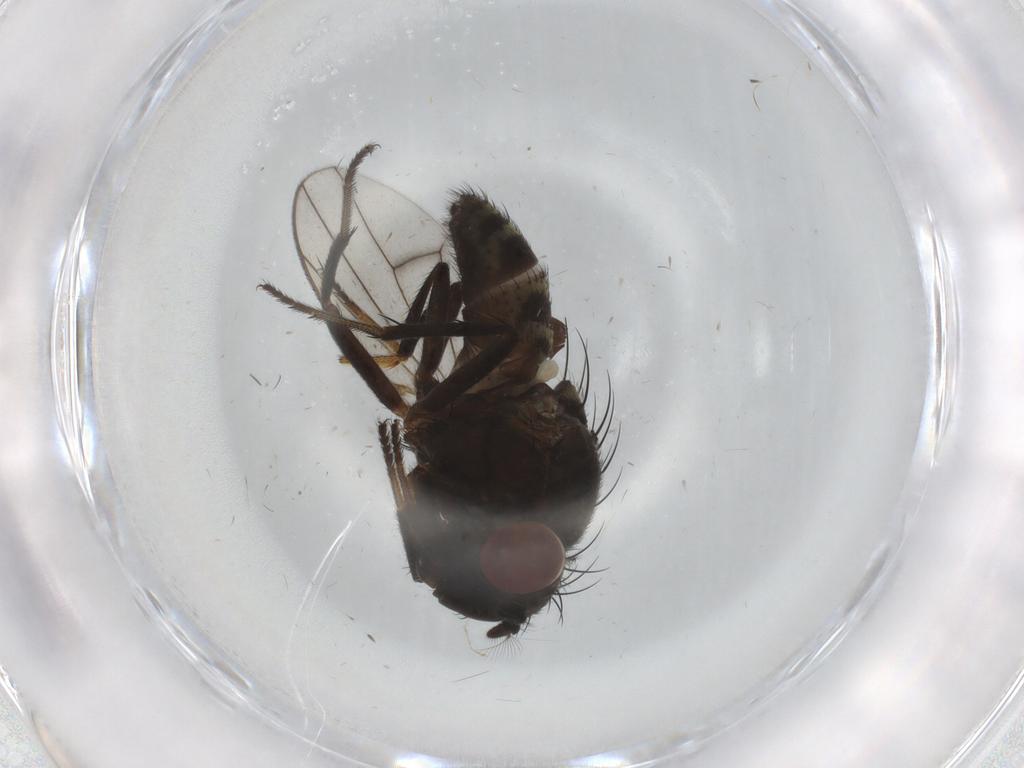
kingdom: Animalia
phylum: Arthropoda
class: Insecta
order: Diptera
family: Ephydridae
